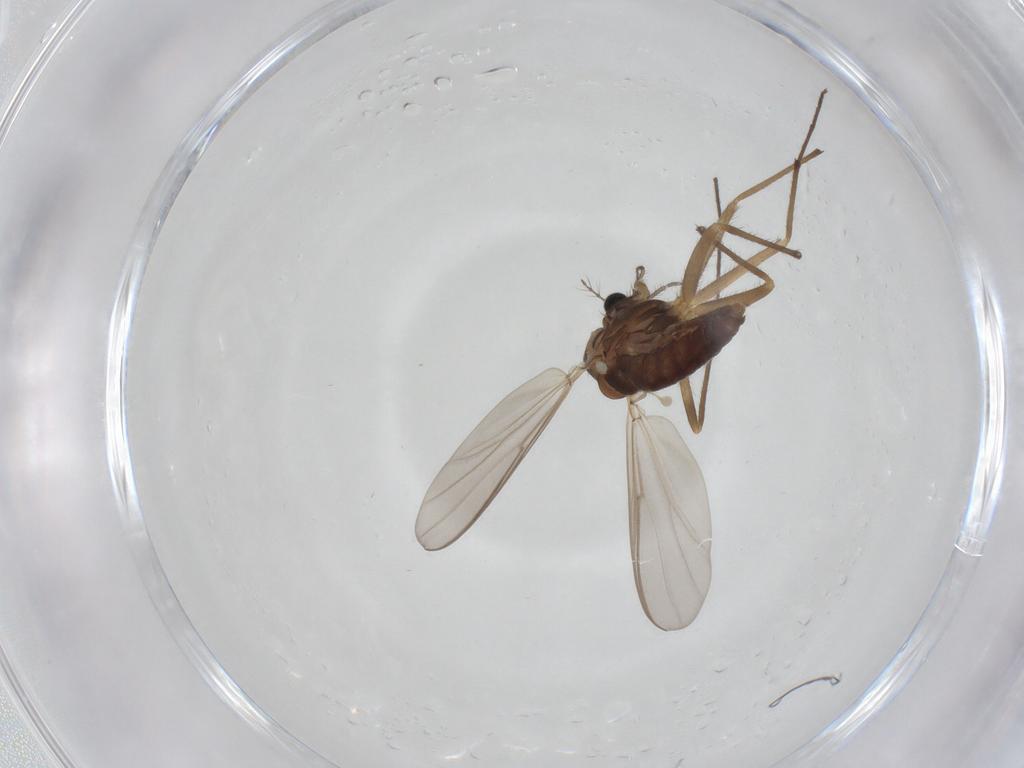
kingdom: Animalia
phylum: Arthropoda
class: Insecta
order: Diptera
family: Chironomidae
